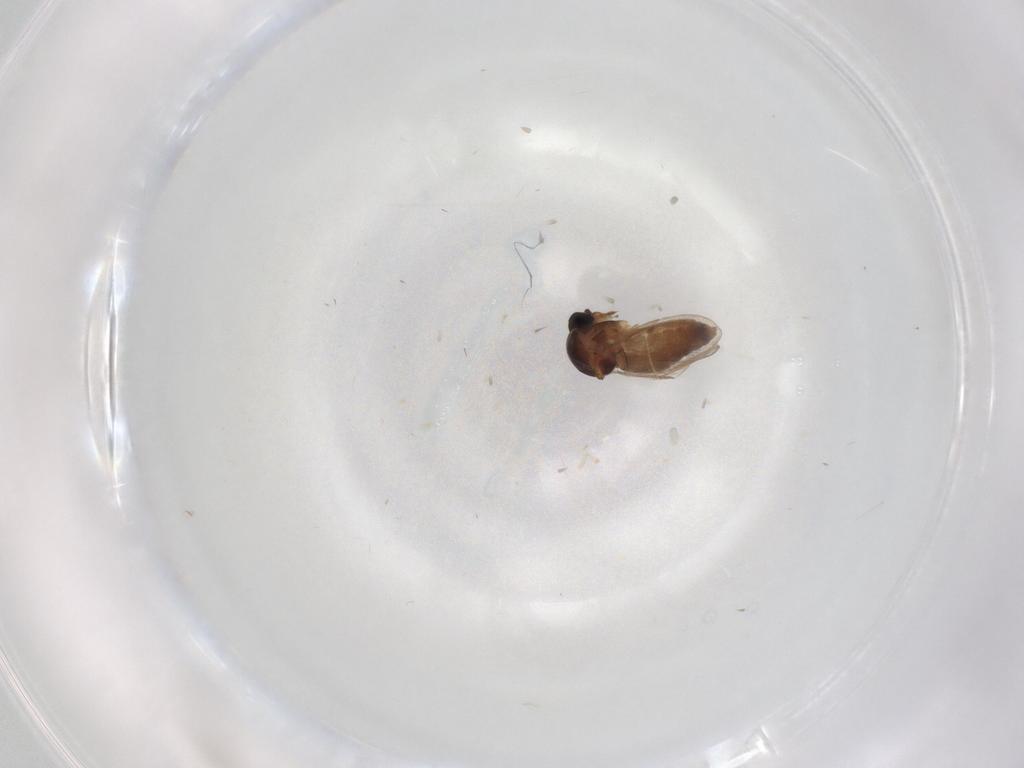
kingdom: Animalia
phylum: Arthropoda
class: Insecta
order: Diptera
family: Ceratopogonidae
